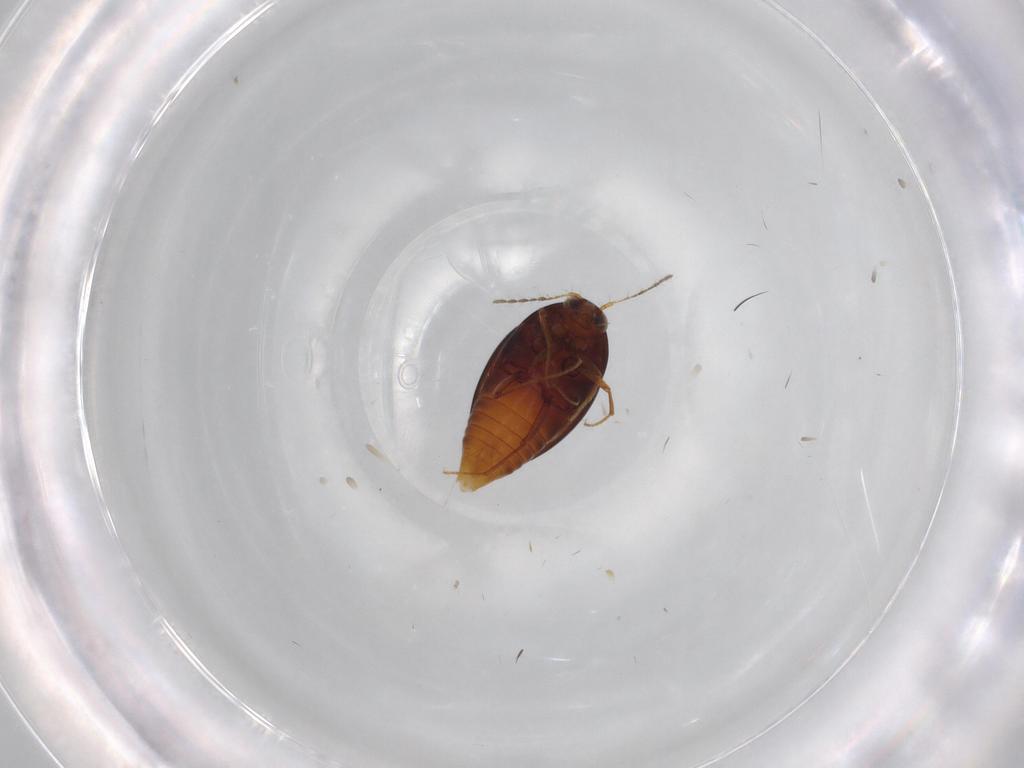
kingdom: Animalia
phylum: Arthropoda
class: Insecta
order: Coleoptera
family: Staphylinidae
